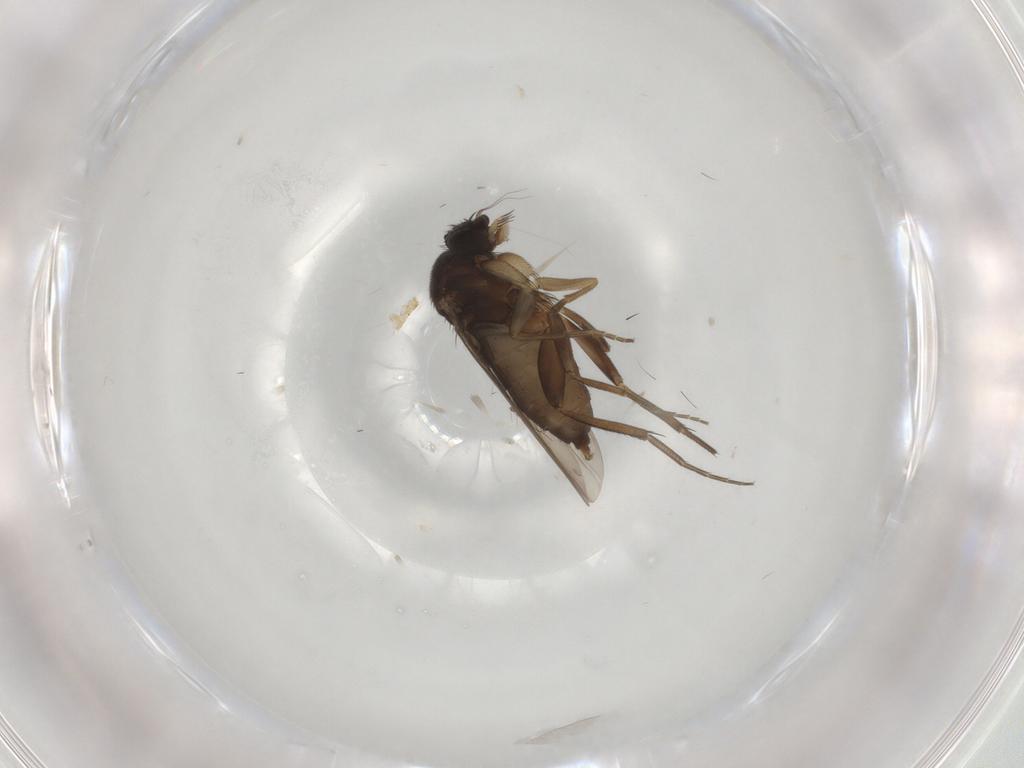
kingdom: Animalia
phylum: Arthropoda
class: Insecta
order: Diptera
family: Phoridae
